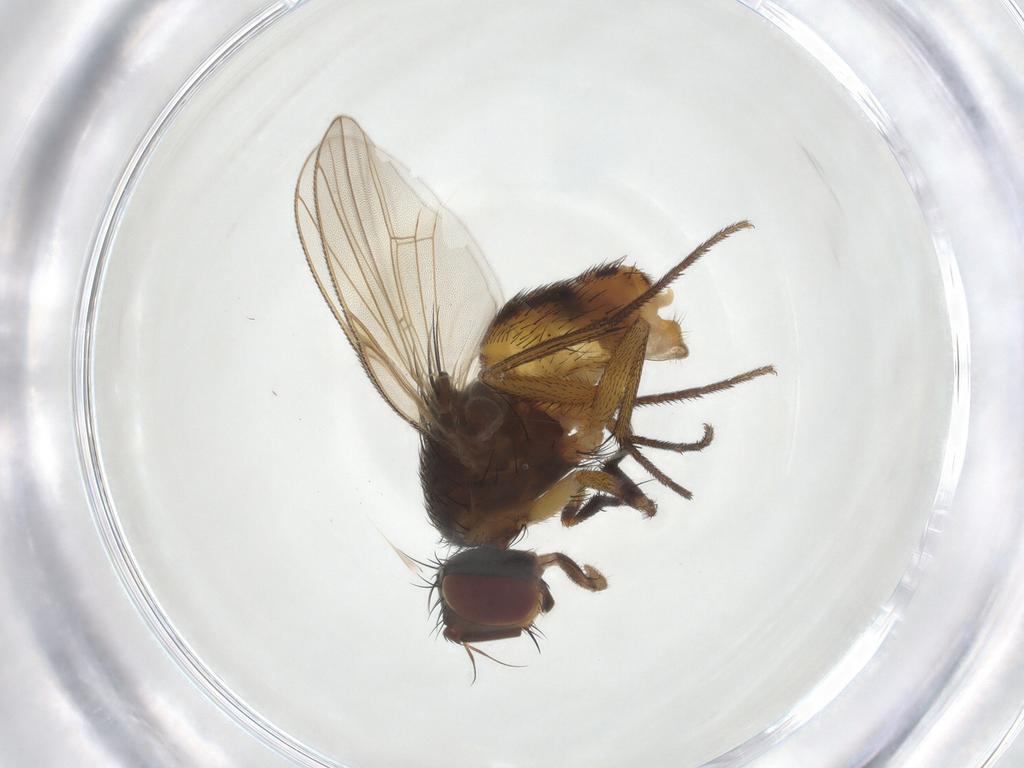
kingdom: Animalia
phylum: Arthropoda
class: Insecta
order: Diptera
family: Muscidae
